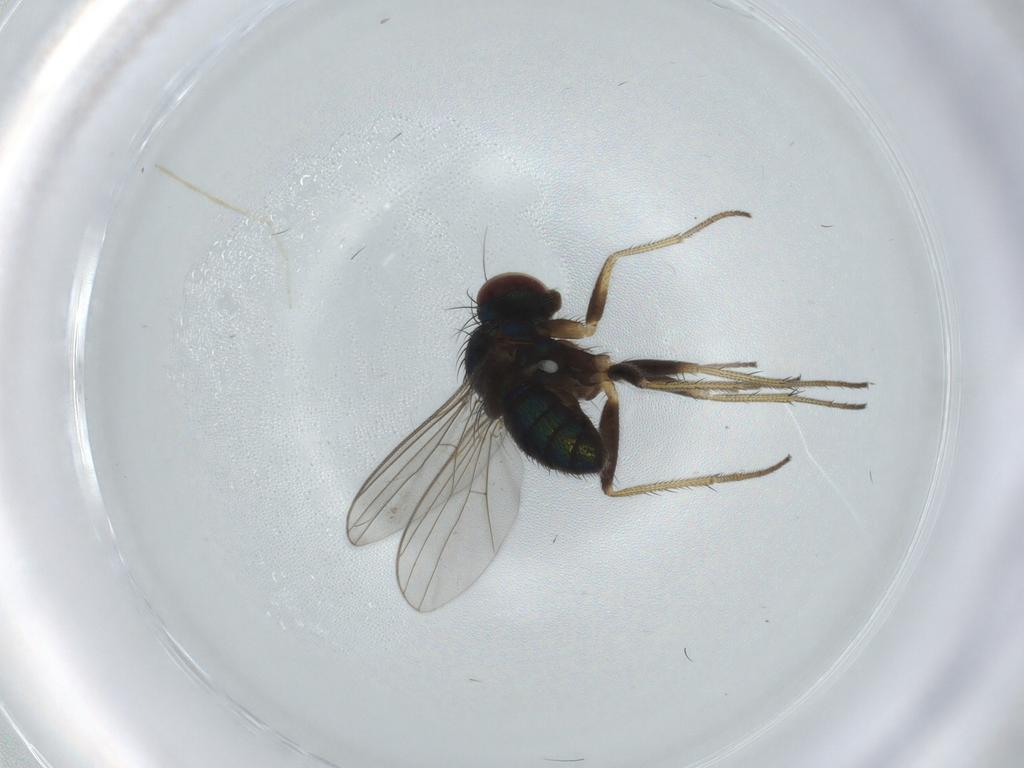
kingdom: Animalia
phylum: Arthropoda
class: Insecta
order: Diptera
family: Chironomidae
